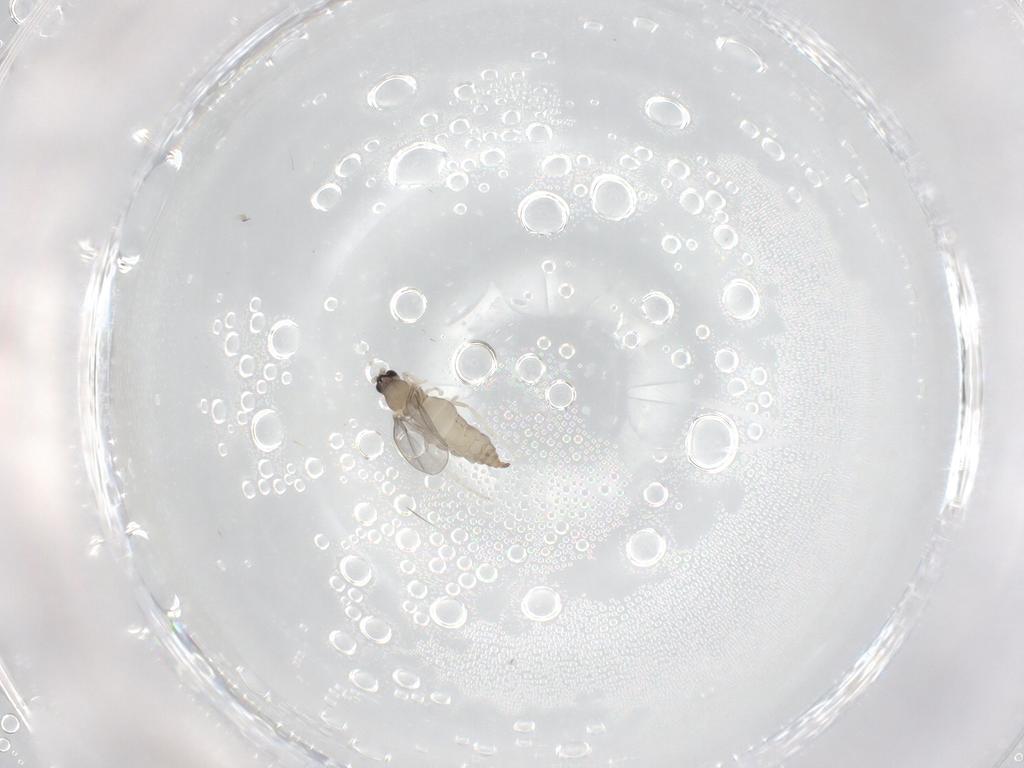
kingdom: Animalia
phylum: Arthropoda
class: Insecta
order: Diptera
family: Cecidomyiidae
